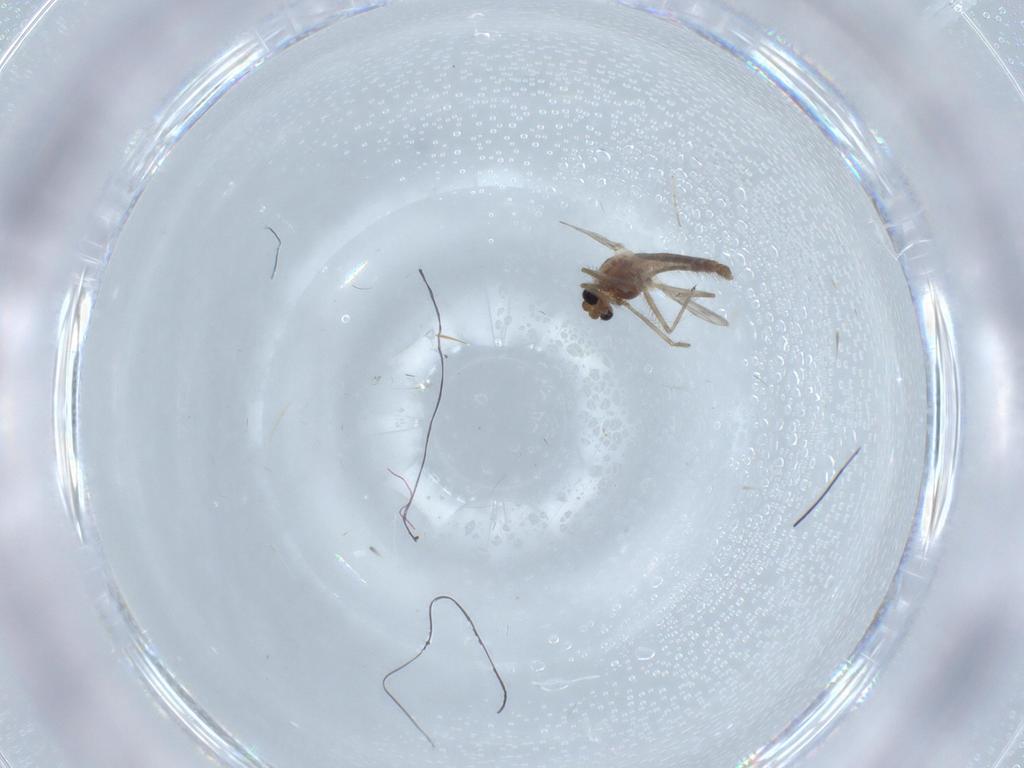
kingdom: Animalia
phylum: Arthropoda
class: Insecta
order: Diptera
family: Chironomidae
